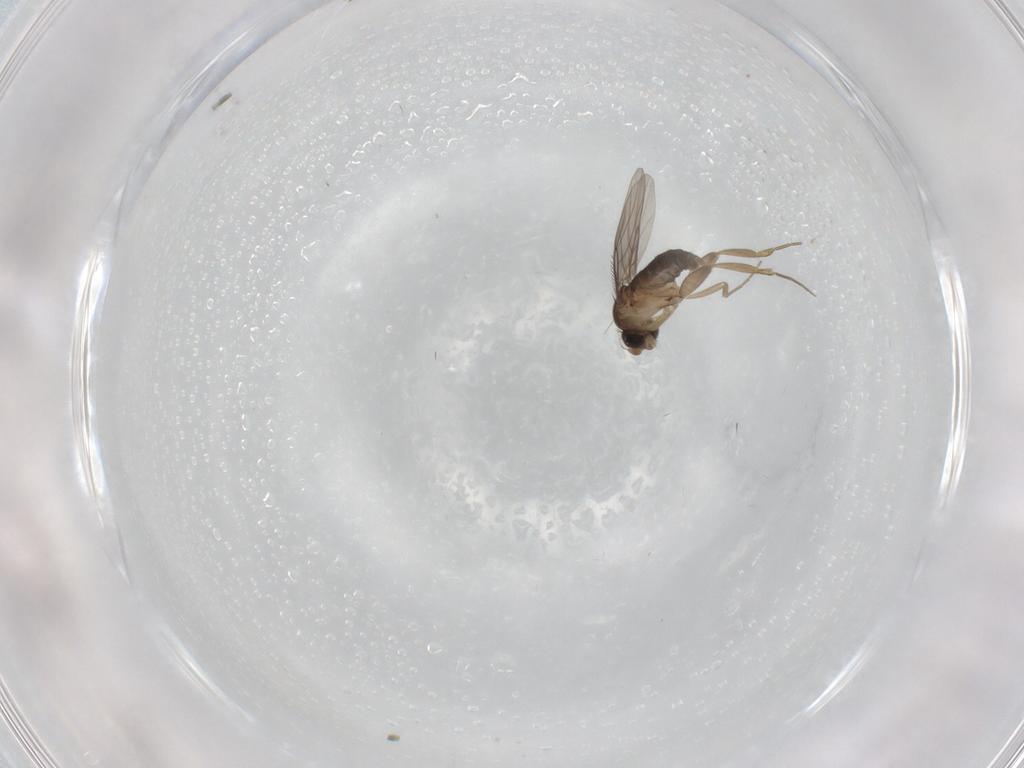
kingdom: Animalia
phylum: Arthropoda
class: Insecta
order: Diptera
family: Phoridae
